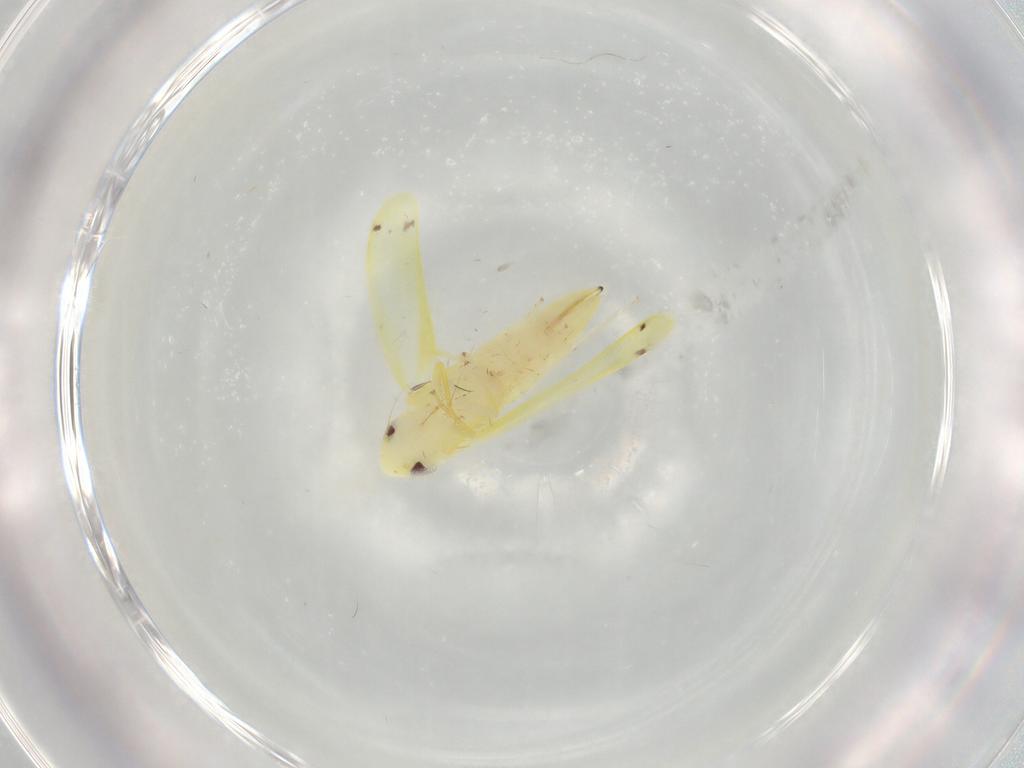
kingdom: Animalia
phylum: Arthropoda
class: Insecta
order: Hemiptera
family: Cicadellidae
